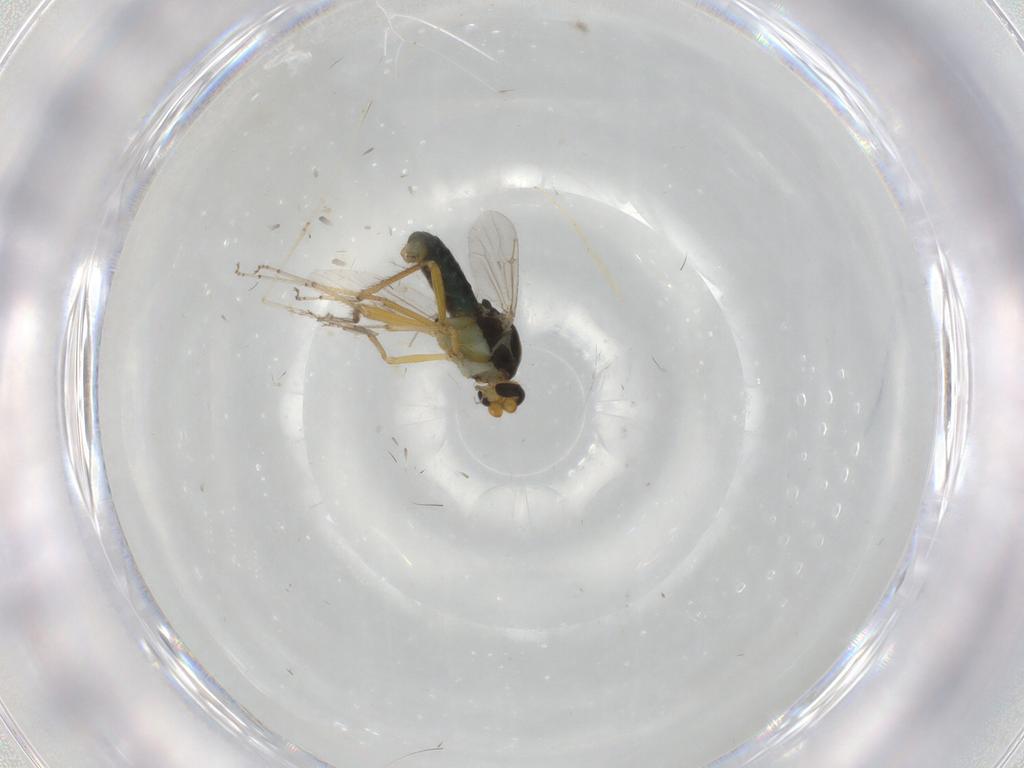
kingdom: Animalia
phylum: Arthropoda
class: Insecta
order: Diptera
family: Ceratopogonidae
